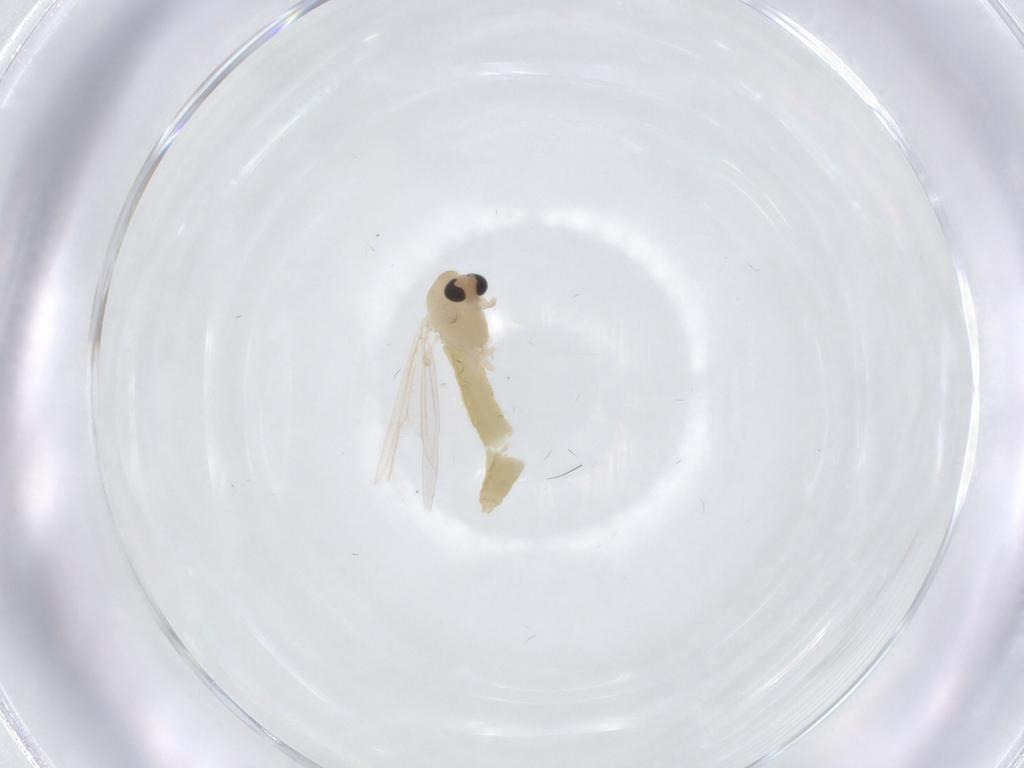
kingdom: Animalia
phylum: Arthropoda
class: Insecta
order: Diptera
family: Chironomidae
